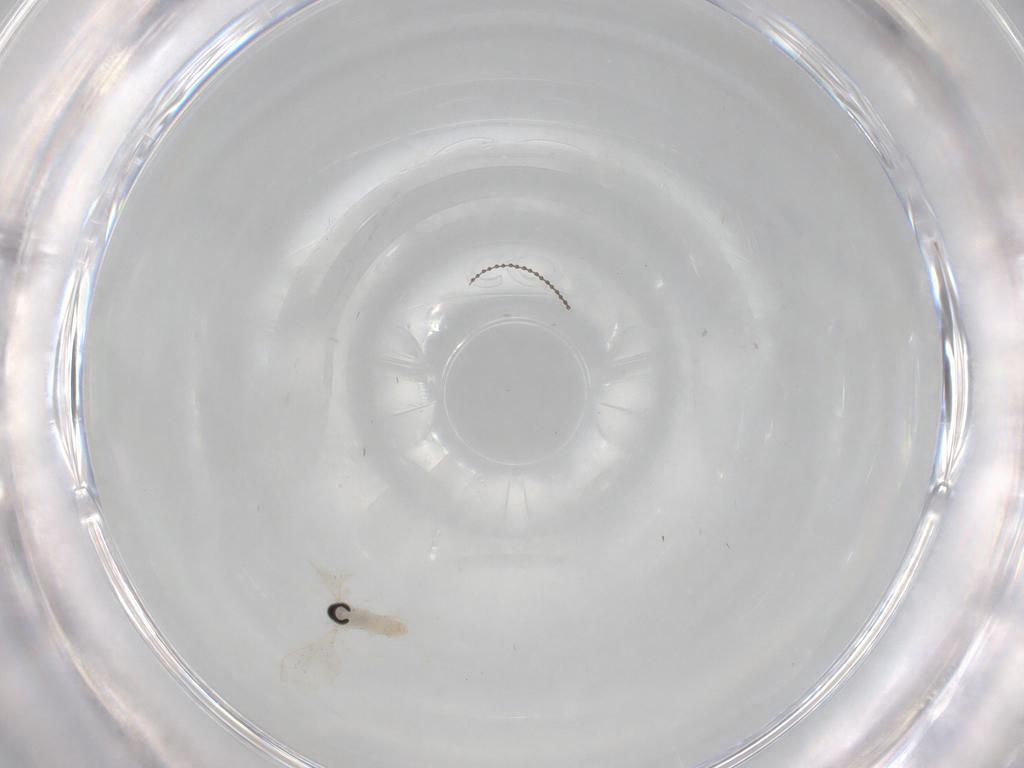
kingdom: Animalia
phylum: Arthropoda
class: Insecta
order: Diptera
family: Cecidomyiidae
